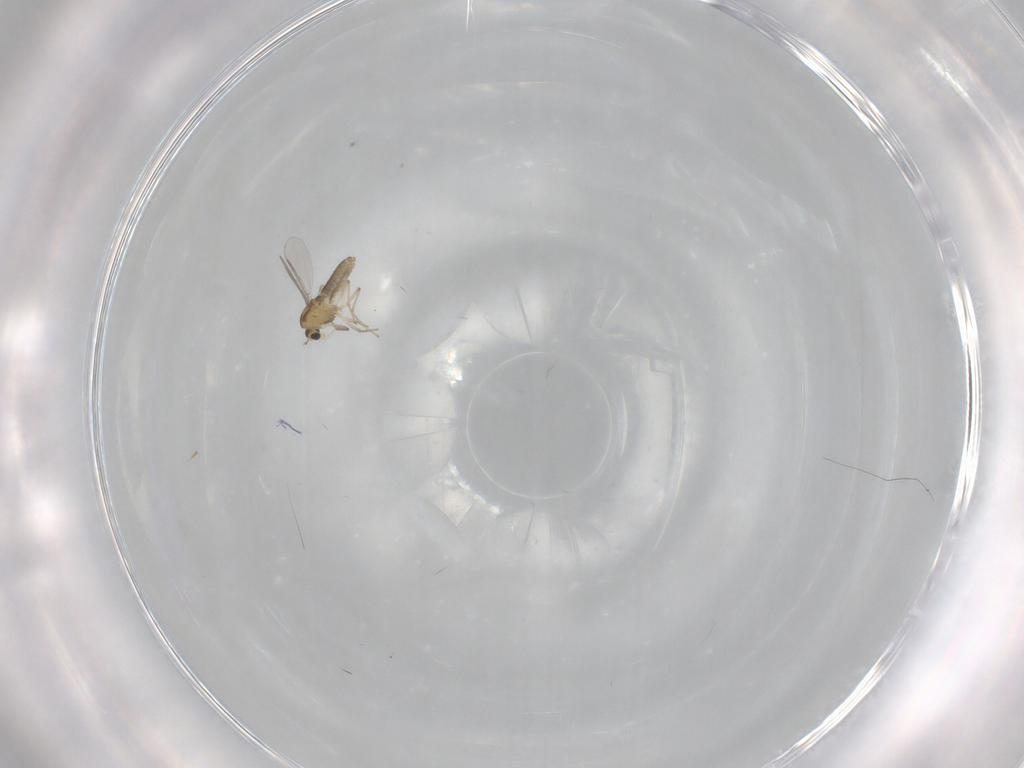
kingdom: Animalia
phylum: Arthropoda
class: Insecta
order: Diptera
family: Chironomidae
